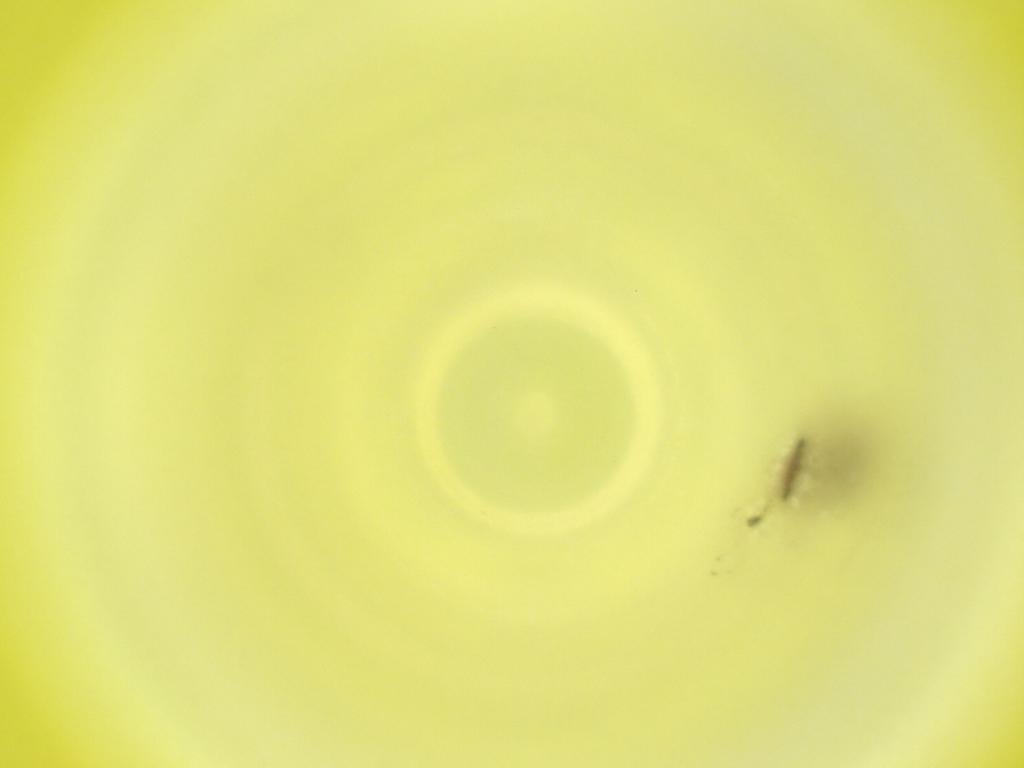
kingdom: Animalia
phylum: Arthropoda
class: Insecta
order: Diptera
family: Cecidomyiidae
